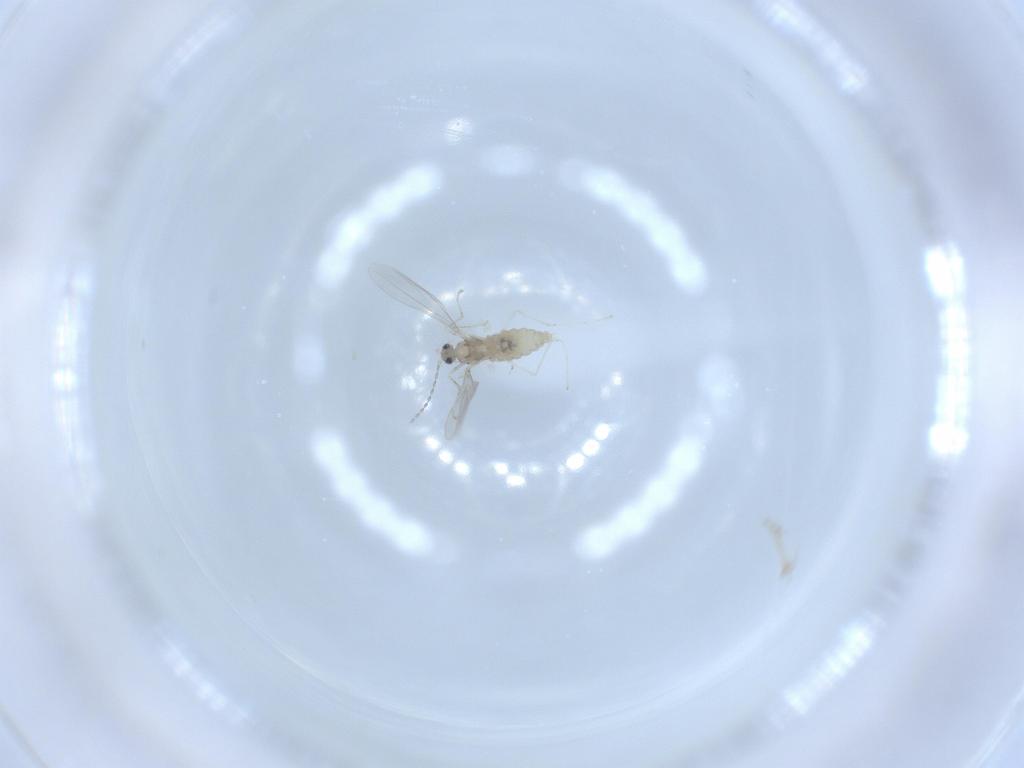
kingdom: Animalia
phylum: Arthropoda
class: Insecta
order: Diptera
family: Cecidomyiidae
